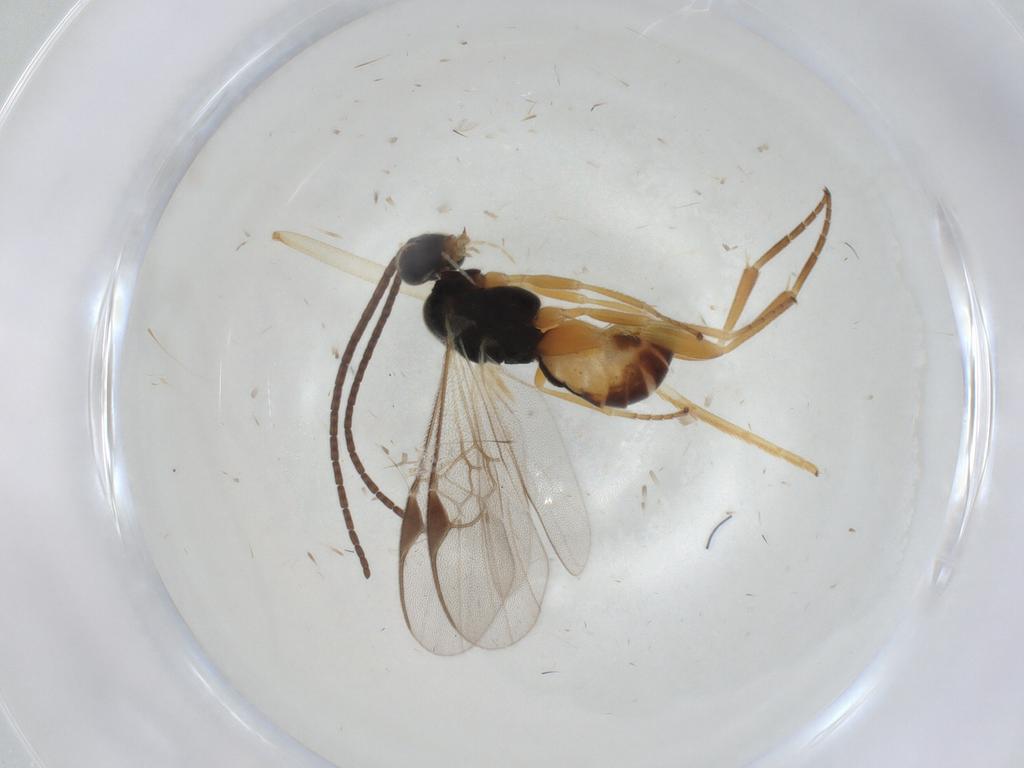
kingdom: Animalia
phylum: Arthropoda
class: Insecta
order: Hymenoptera
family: Braconidae
